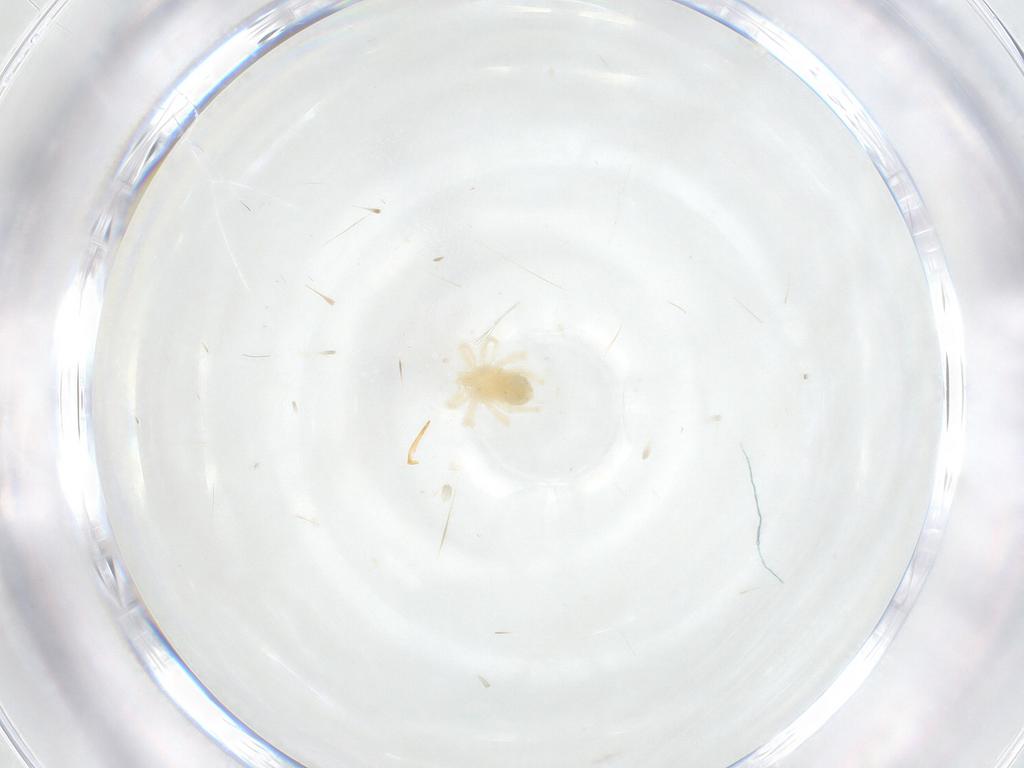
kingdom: Animalia
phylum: Arthropoda
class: Arachnida
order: Trombidiformes
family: Anystidae
